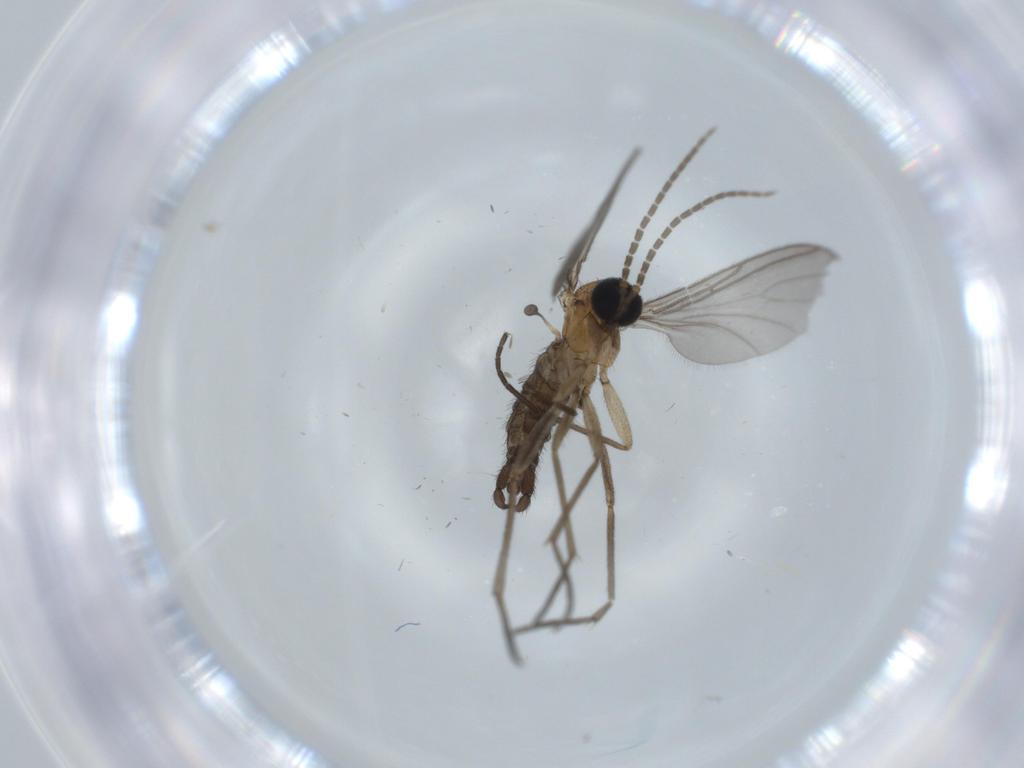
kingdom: Animalia
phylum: Arthropoda
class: Insecta
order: Diptera
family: Sciaridae
